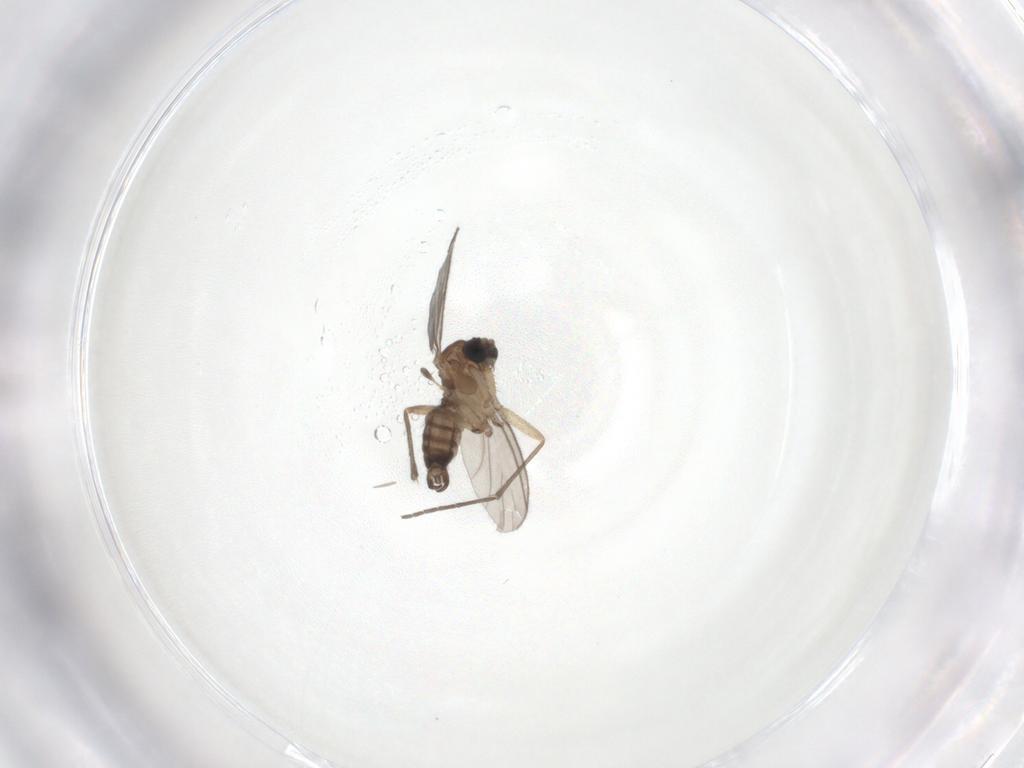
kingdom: Animalia
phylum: Arthropoda
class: Insecta
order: Diptera
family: Sciaridae
